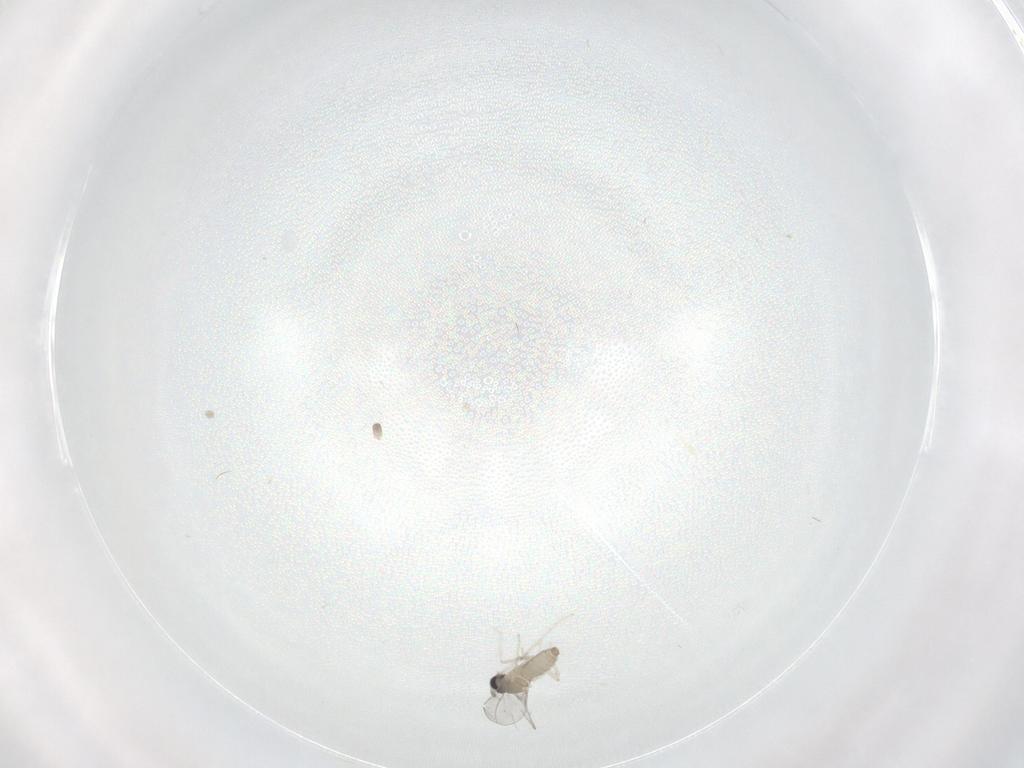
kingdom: Animalia
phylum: Arthropoda
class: Insecta
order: Diptera
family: Cecidomyiidae
